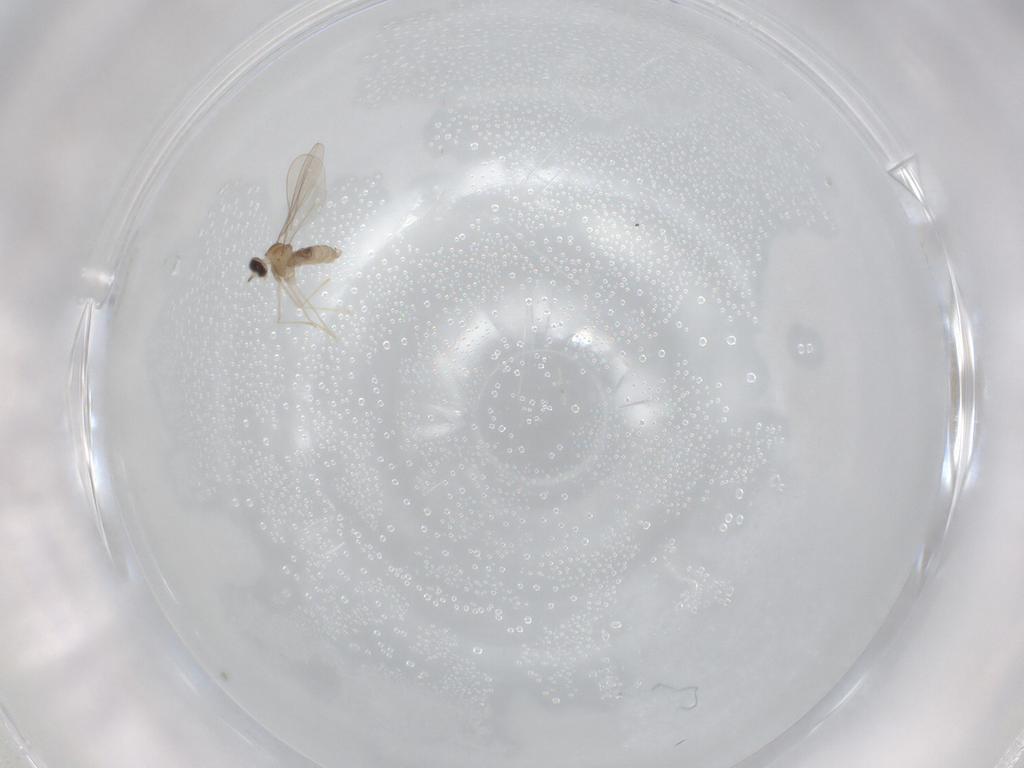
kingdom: Animalia
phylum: Arthropoda
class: Insecta
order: Diptera
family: Cecidomyiidae
